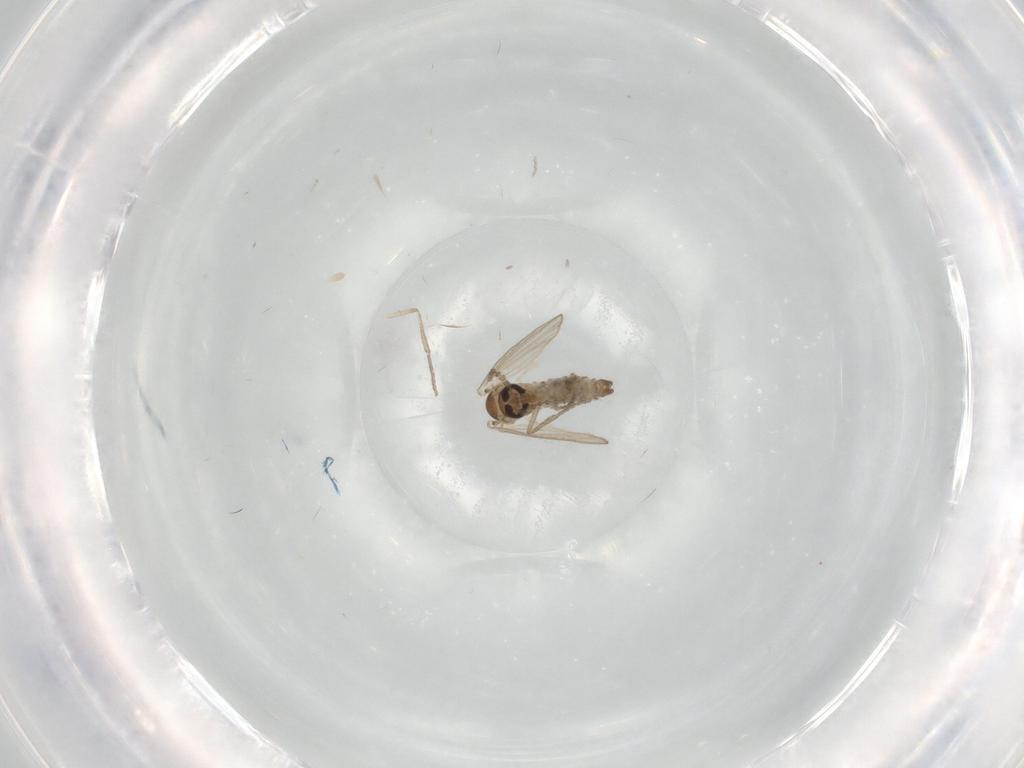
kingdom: Animalia
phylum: Arthropoda
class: Insecta
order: Diptera
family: Psychodidae
